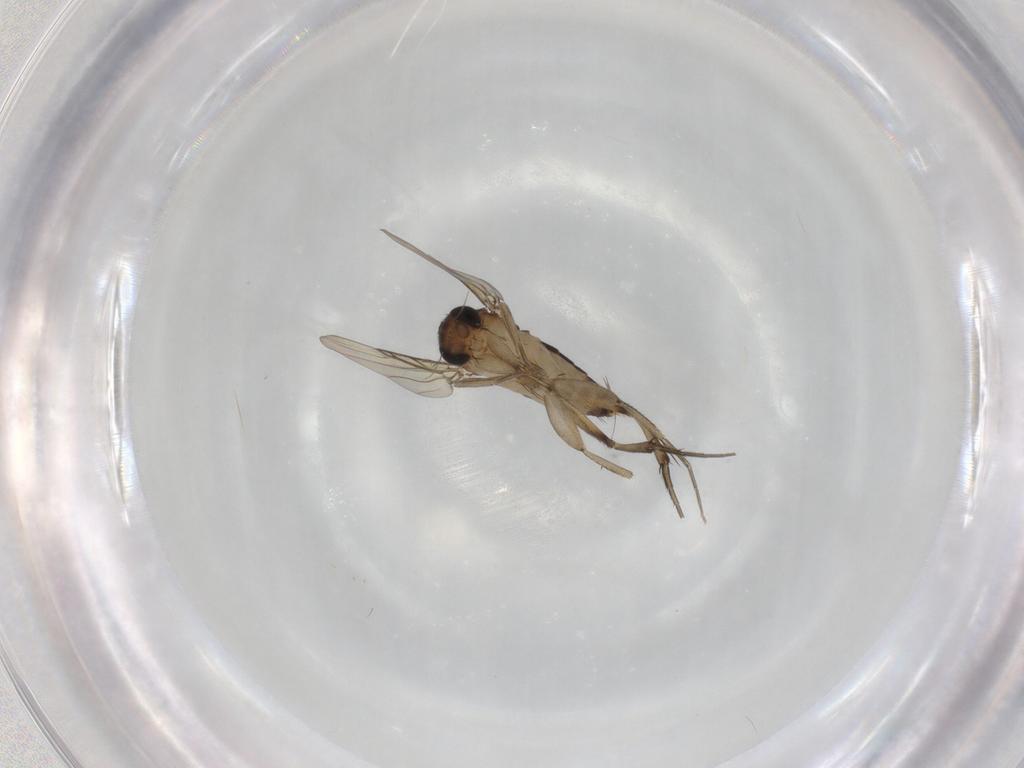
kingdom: Animalia
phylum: Arthropoda
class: Insecta
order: Diptera
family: Phoridae
